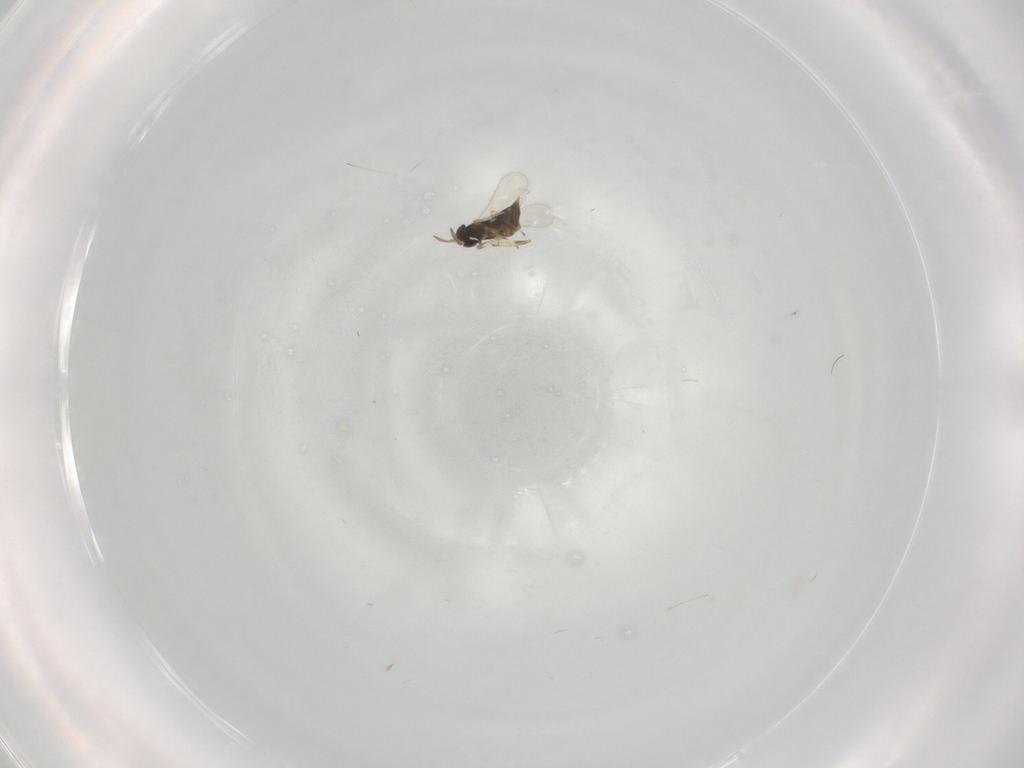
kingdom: Animalia
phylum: Arthropoda
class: Insecta
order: Hymenoptera
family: Aphelinidae
